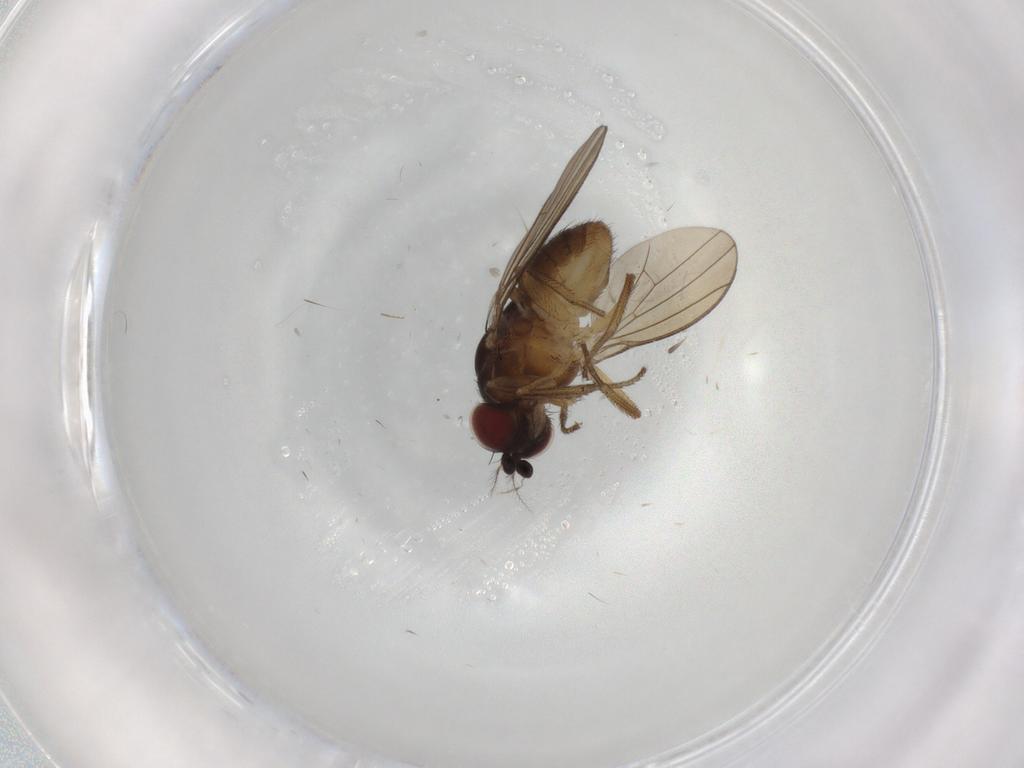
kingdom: Animalia
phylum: Arthropoda
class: Insecta
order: Diptera
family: Lauxaniidae
